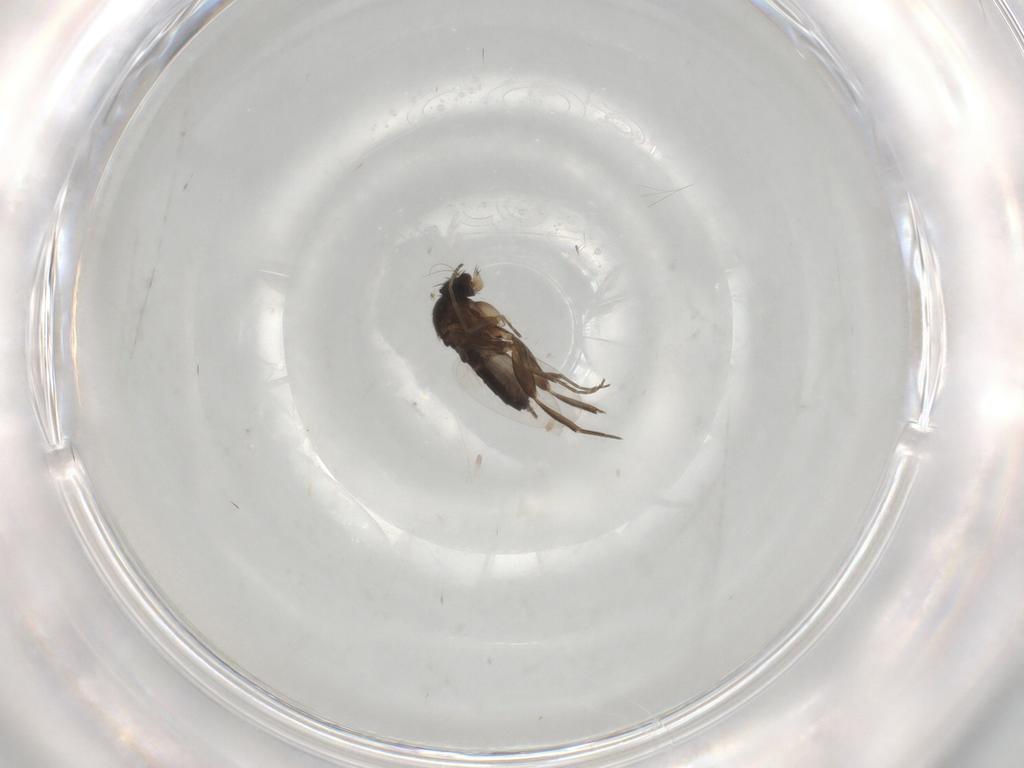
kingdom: Animalia
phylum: Arthropoda
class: Insecta
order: Diptera
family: Phoridae
